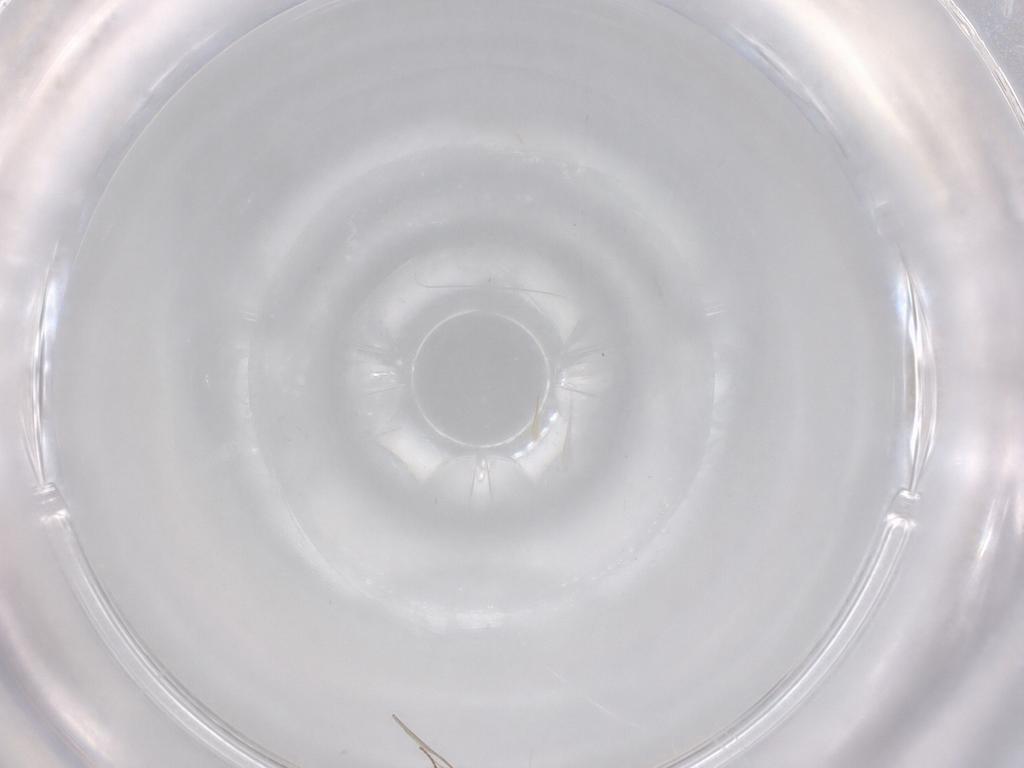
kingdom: Animalia
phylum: Arthropoda
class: Insecta
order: Diptera
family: Cecidomyiidae
